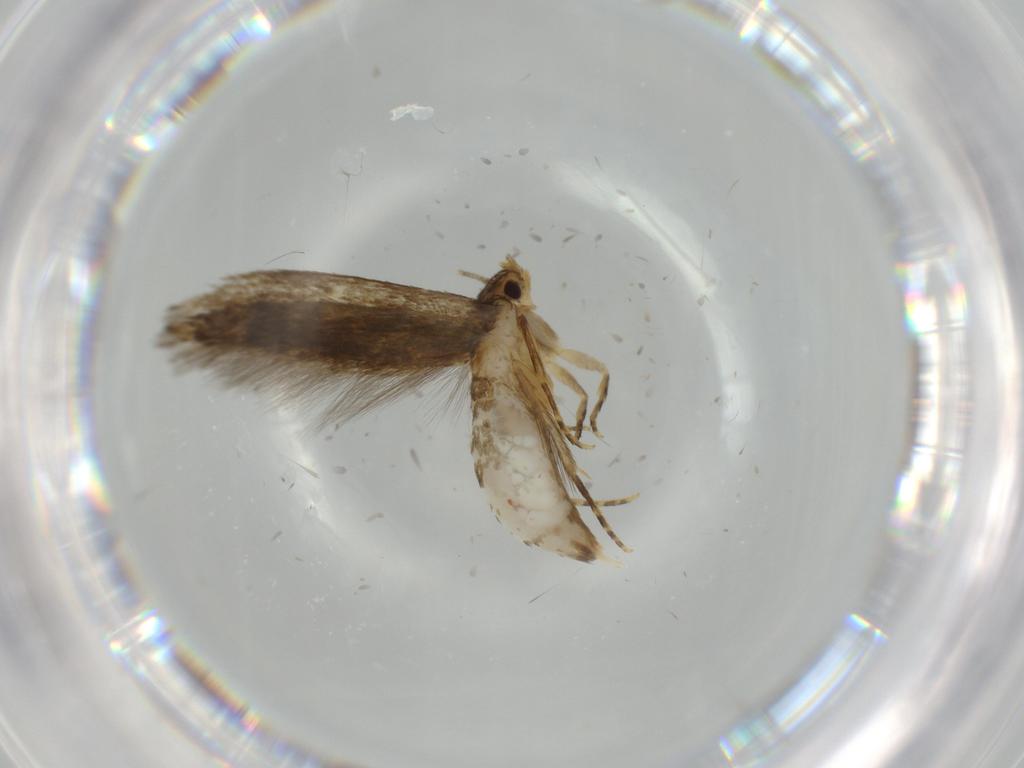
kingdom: Animalia
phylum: Arthropoda
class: Insecta
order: Lepidoptera
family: Tineidae
